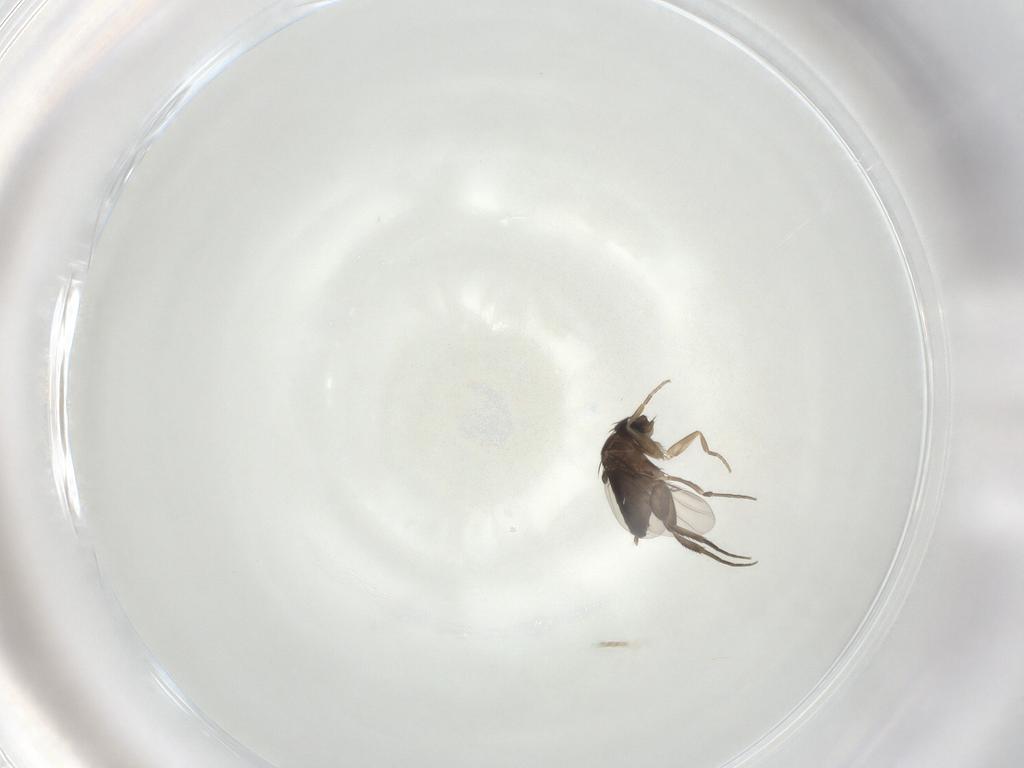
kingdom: Animalia
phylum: Arthropoda
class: Insecta
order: Diptera
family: Phoridae
